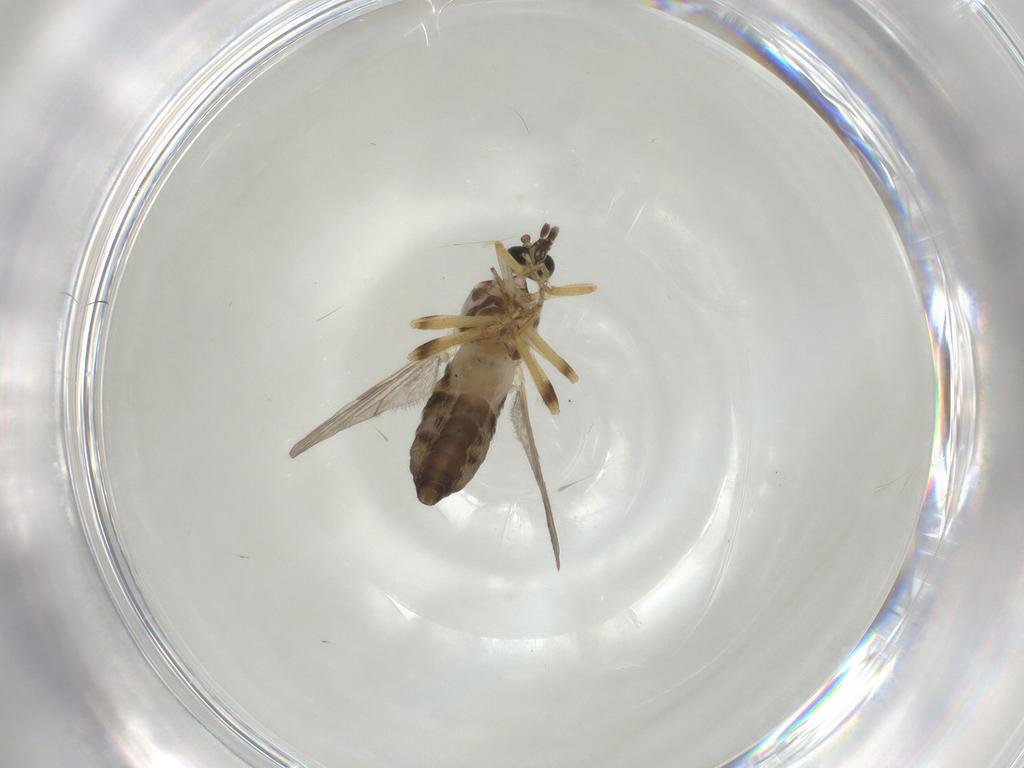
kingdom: Animalia
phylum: Arthropoda
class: Insecta
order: Diptera
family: Ceratopogonidae
